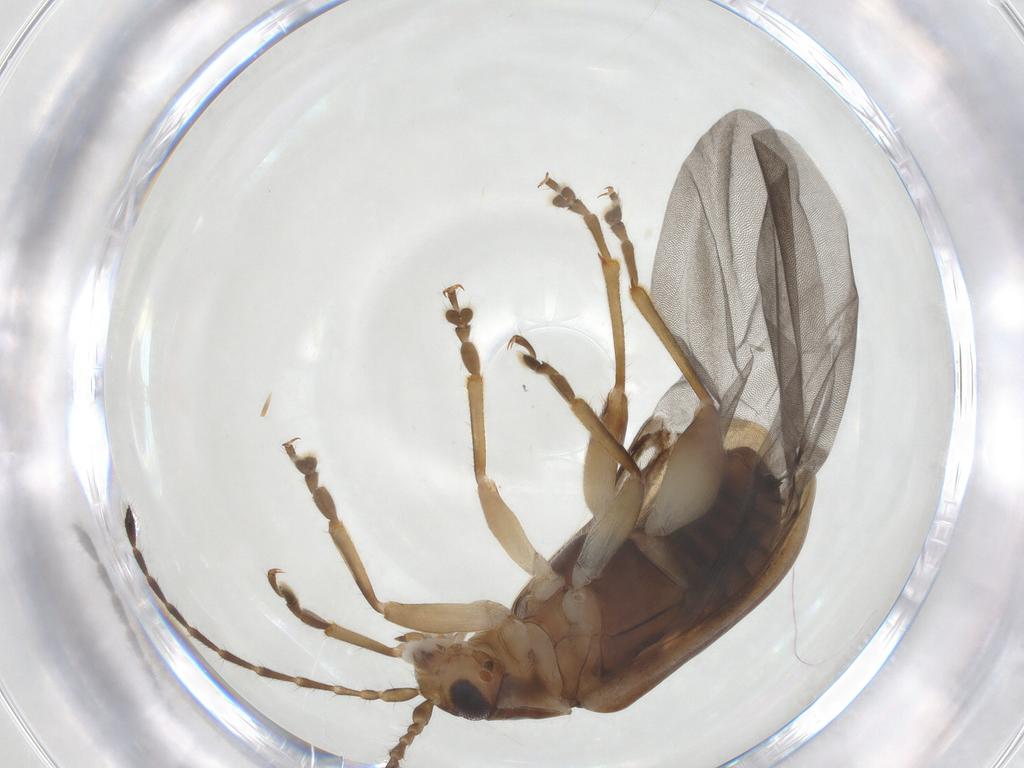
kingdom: Animalia
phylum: Arthropoda
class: Insecta
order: Coleoptera
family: Chrysomelidae
